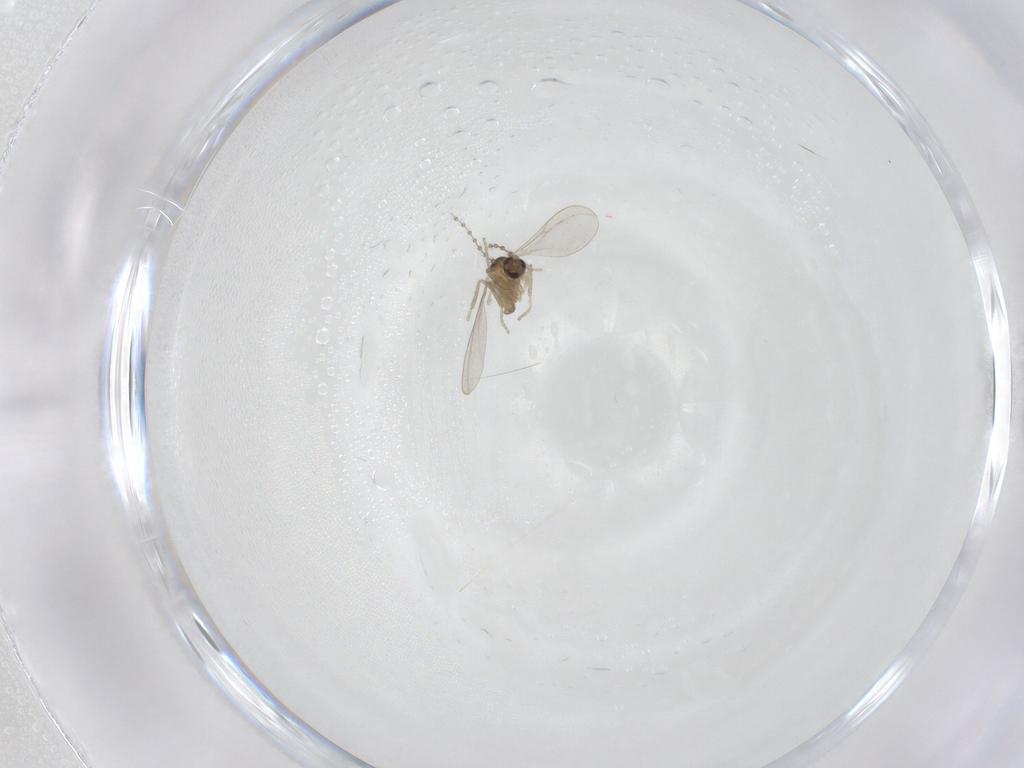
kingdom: Animalia
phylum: Arthropoda
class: Insecta
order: Diptera
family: Cecidomyiidae
